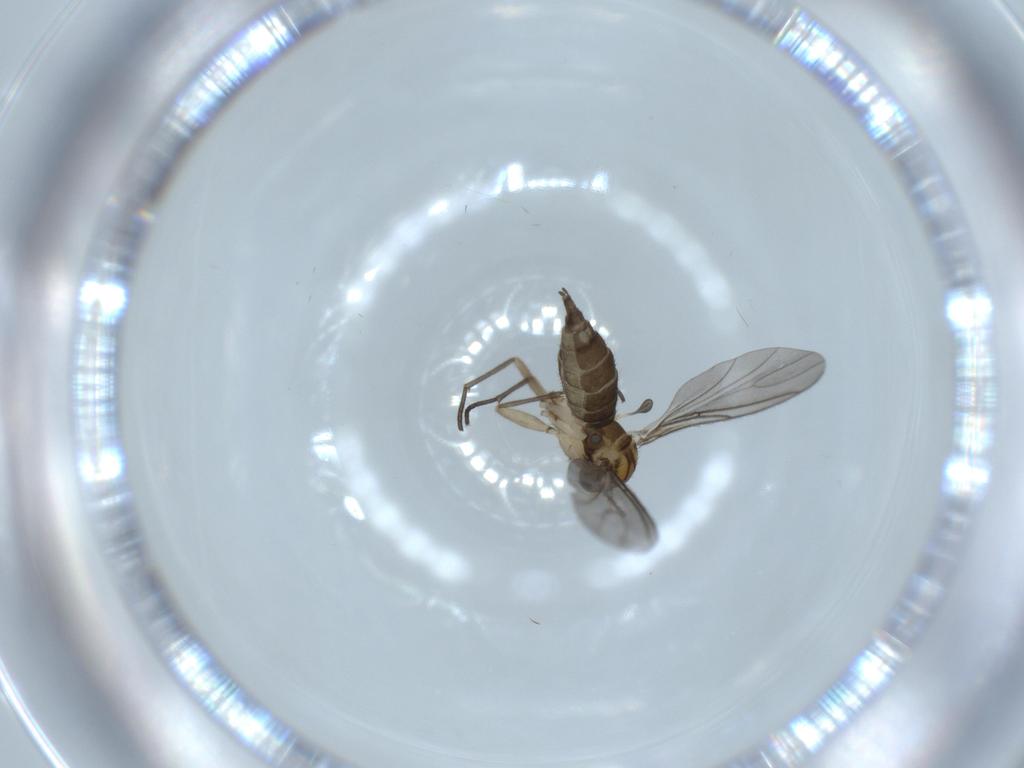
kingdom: Animalia
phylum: Arthropoda
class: Insecta
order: Diptera
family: Sciaridae
